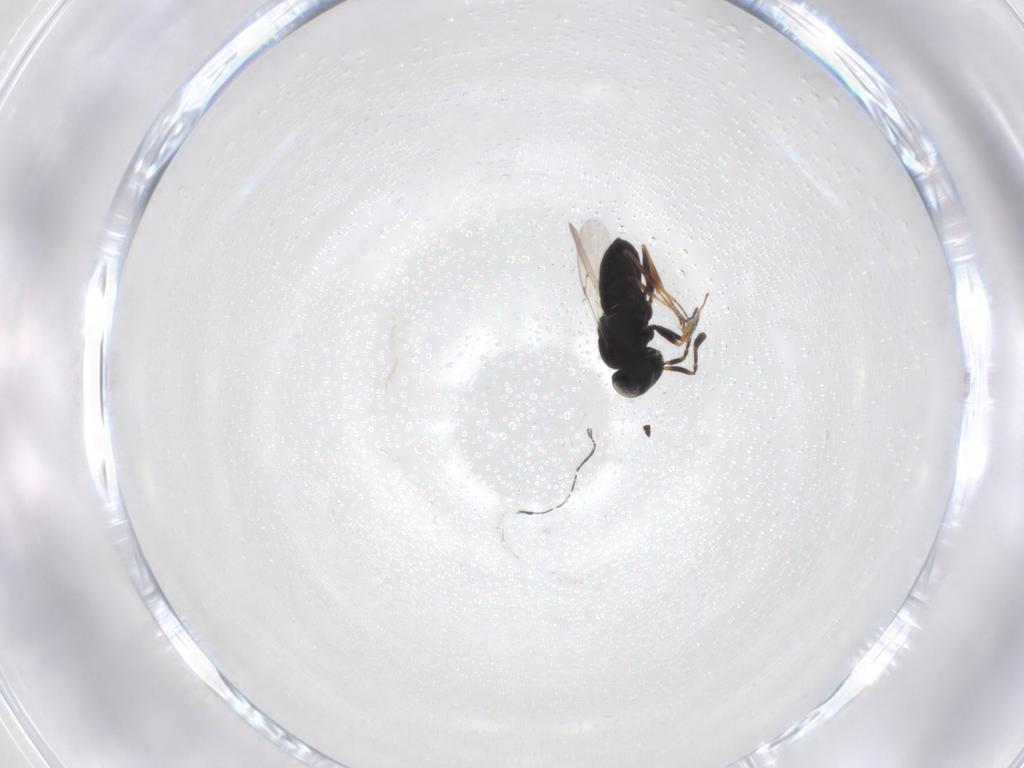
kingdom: Animalia
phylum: Arthropoda
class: Insecta
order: Hymenoptera
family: Scelionidae
